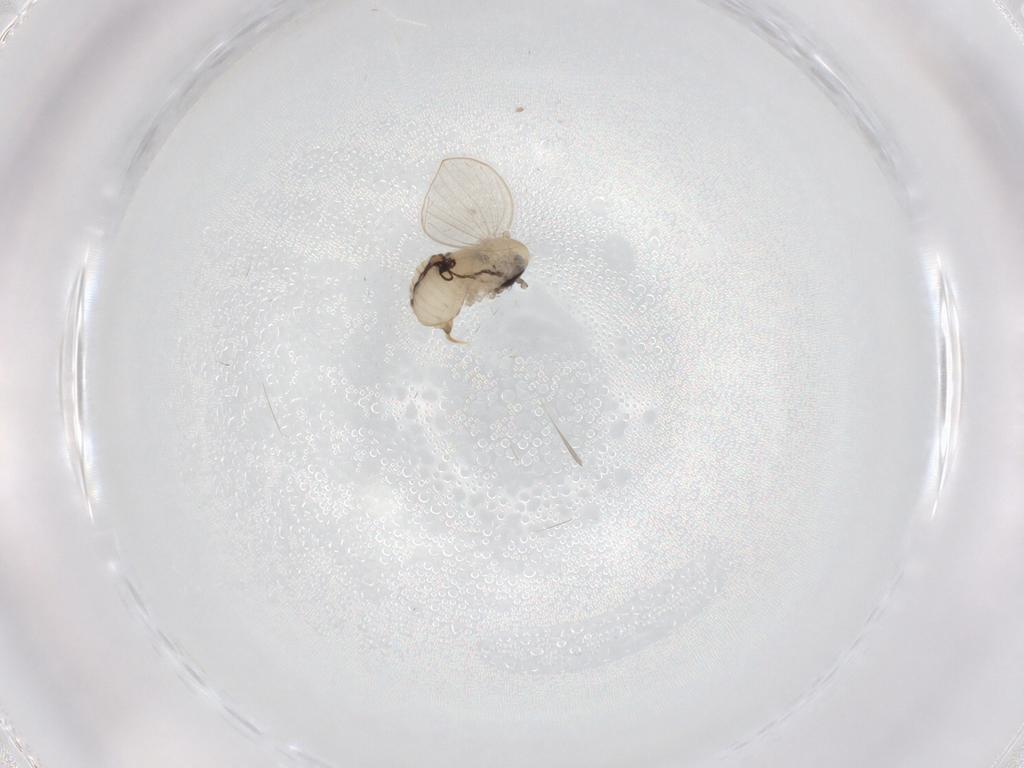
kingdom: Animalia
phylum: Arthropoda
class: Insecta
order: Diptera
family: Psychodidae
